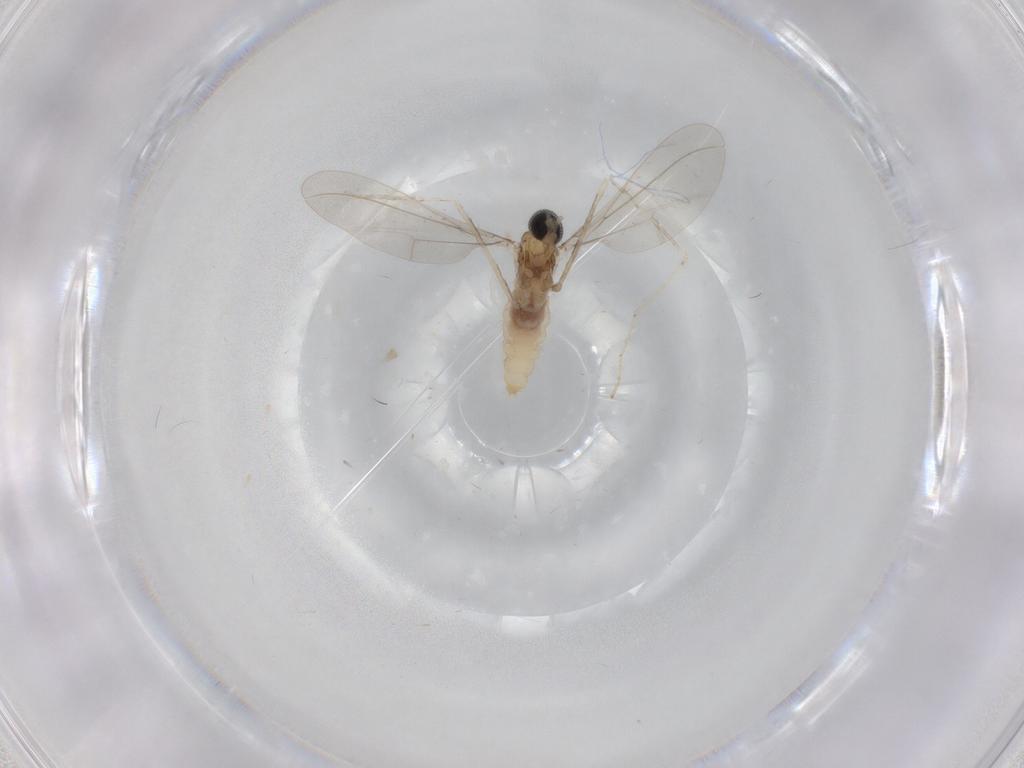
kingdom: Animalia
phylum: Arthropoda
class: Insecta
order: Diptera
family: Cecidomyiidae
